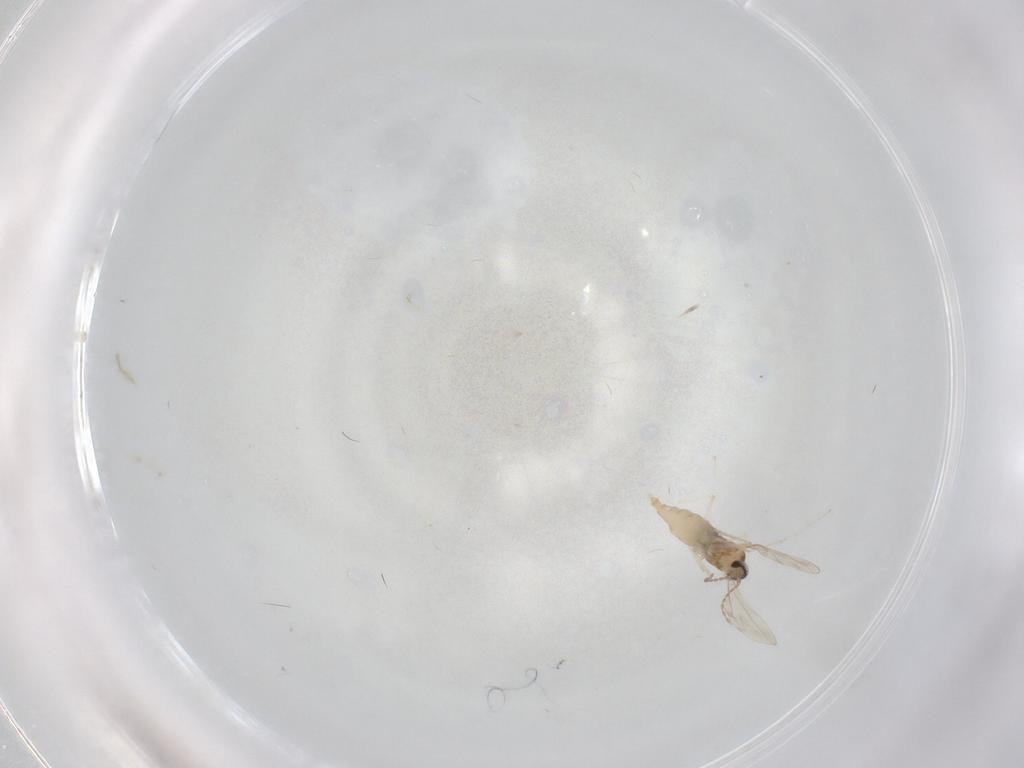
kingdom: Animalia
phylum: Arthropoda
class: Insecta
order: Diptera
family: Cecidomyiidae
